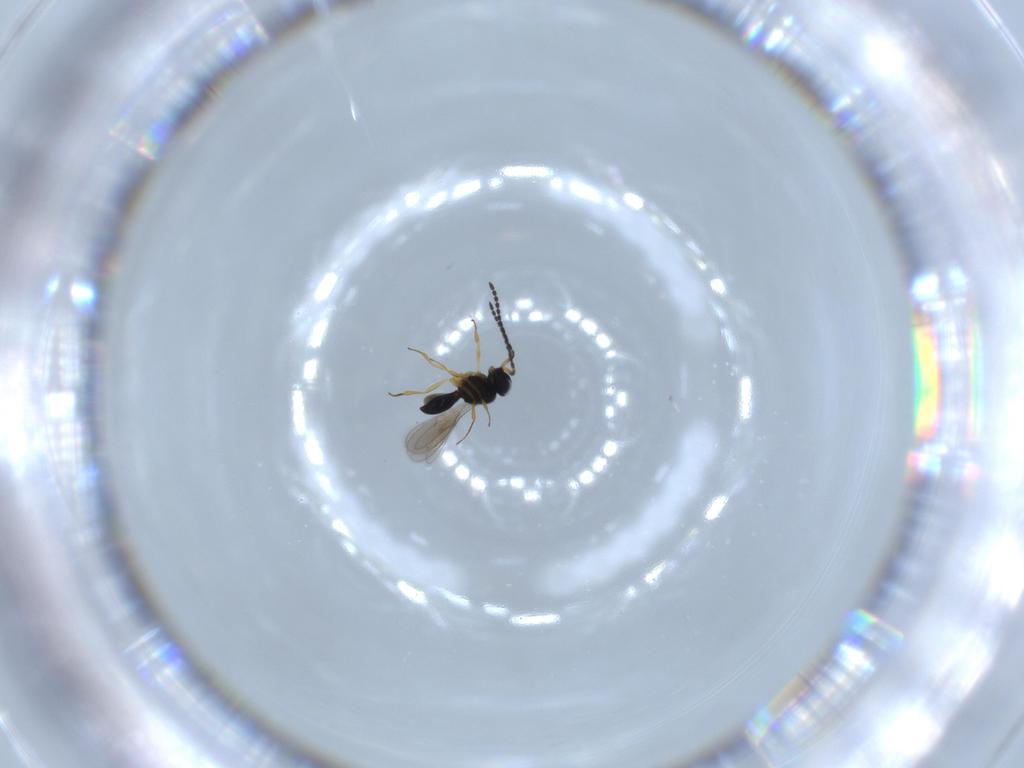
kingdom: Animalia
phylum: Arthropoda
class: Insecta
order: Hymenoptera
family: Scelionidae
